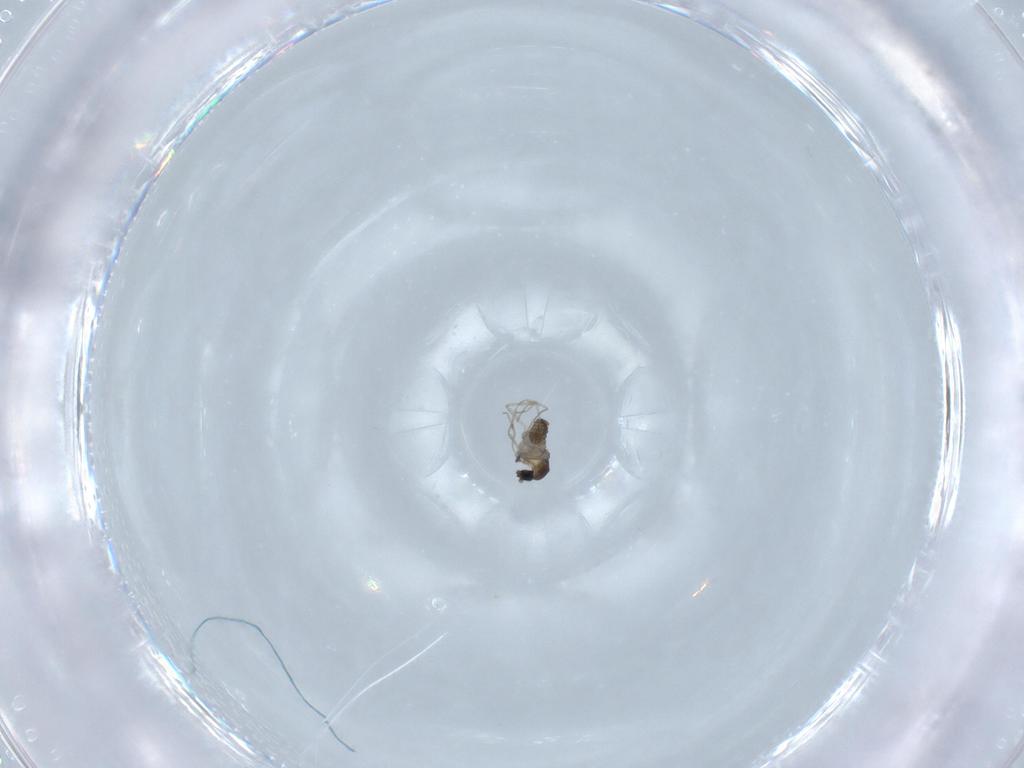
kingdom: Animalia
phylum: Arthropoda
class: Insecta
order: Diptera
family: Cecidomyiidae
